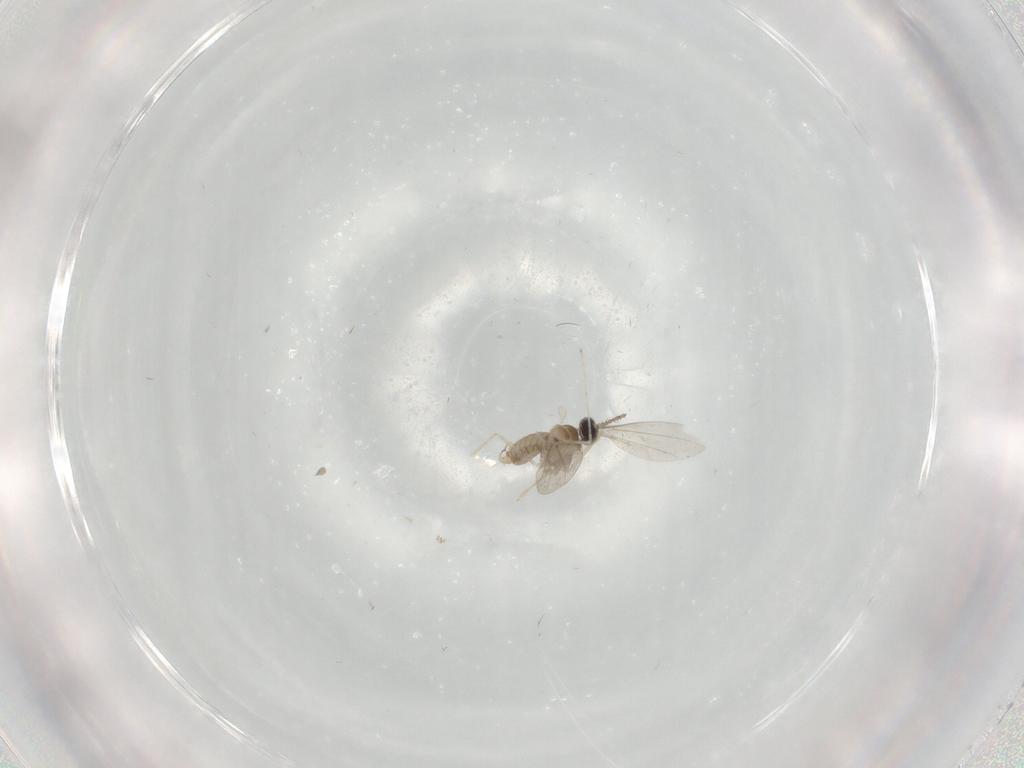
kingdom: Animalia
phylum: Arthropoda
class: Insecta
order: Diptera
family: Cecidomyiidae
